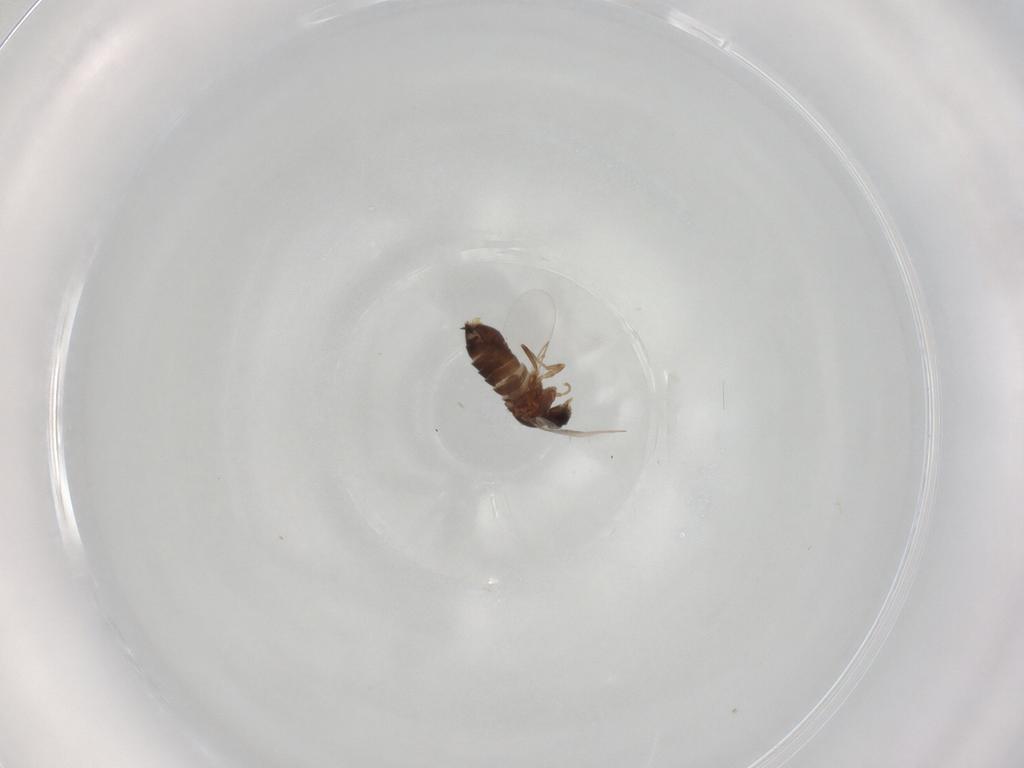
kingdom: Animalia
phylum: Arthropoda
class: Insecta
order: Diptera
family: Scatopsidae
